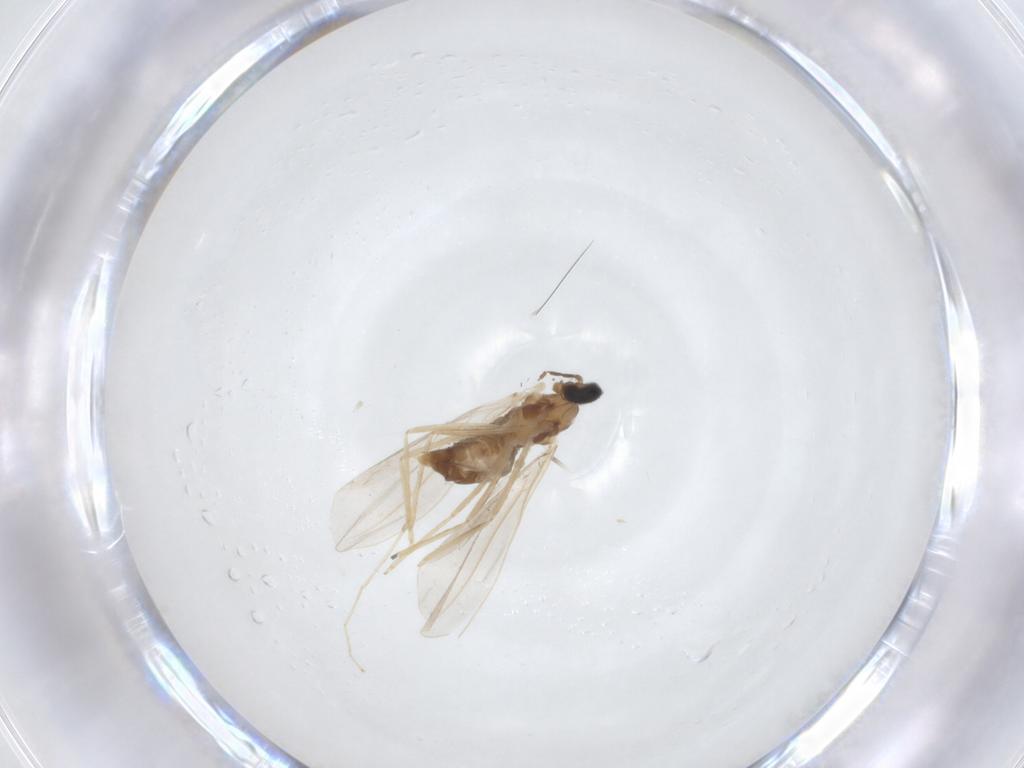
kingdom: Animalia
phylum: Arthropoda
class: Insecta
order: Diptera
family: Cecidomyiidae
